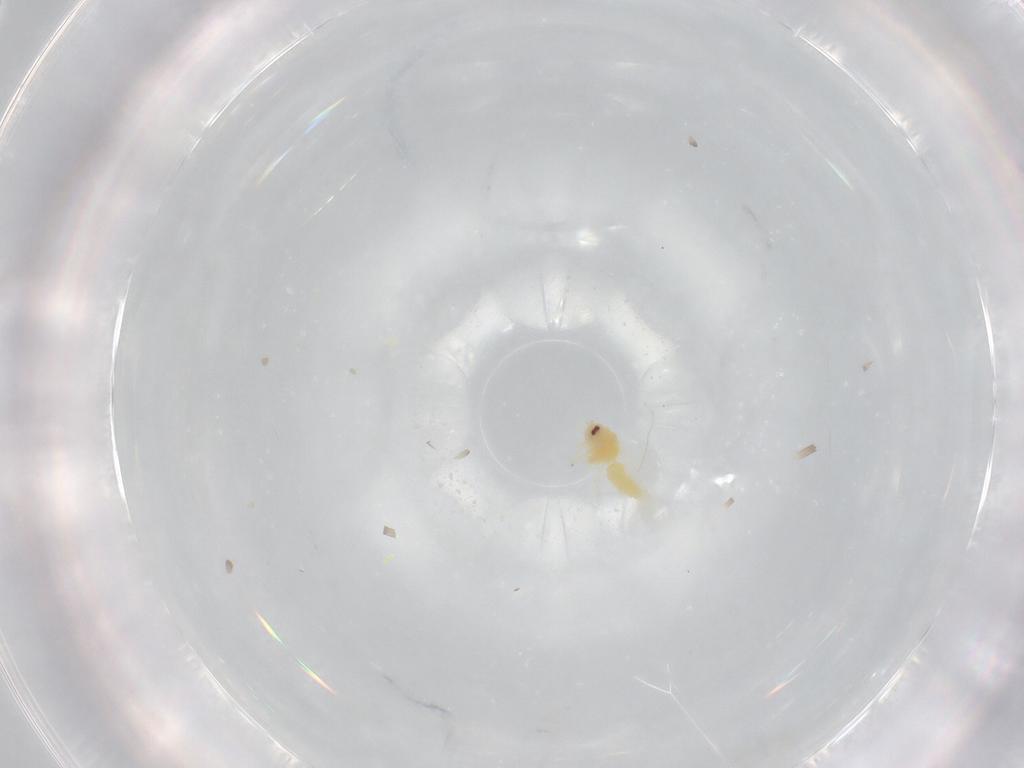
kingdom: Animalia
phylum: Arthropoda
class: Insecta
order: Hemiptera
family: Aleyrodidae
